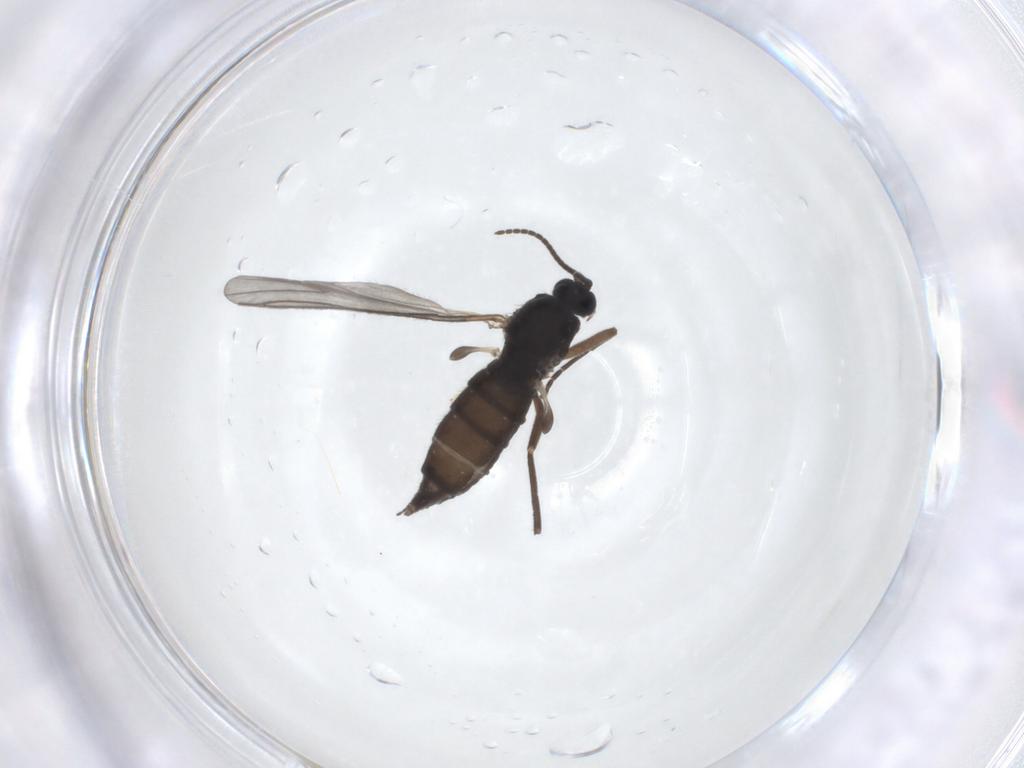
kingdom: Animalia
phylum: Arthropoda
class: Insecta
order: Diptera
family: Sciaridae
